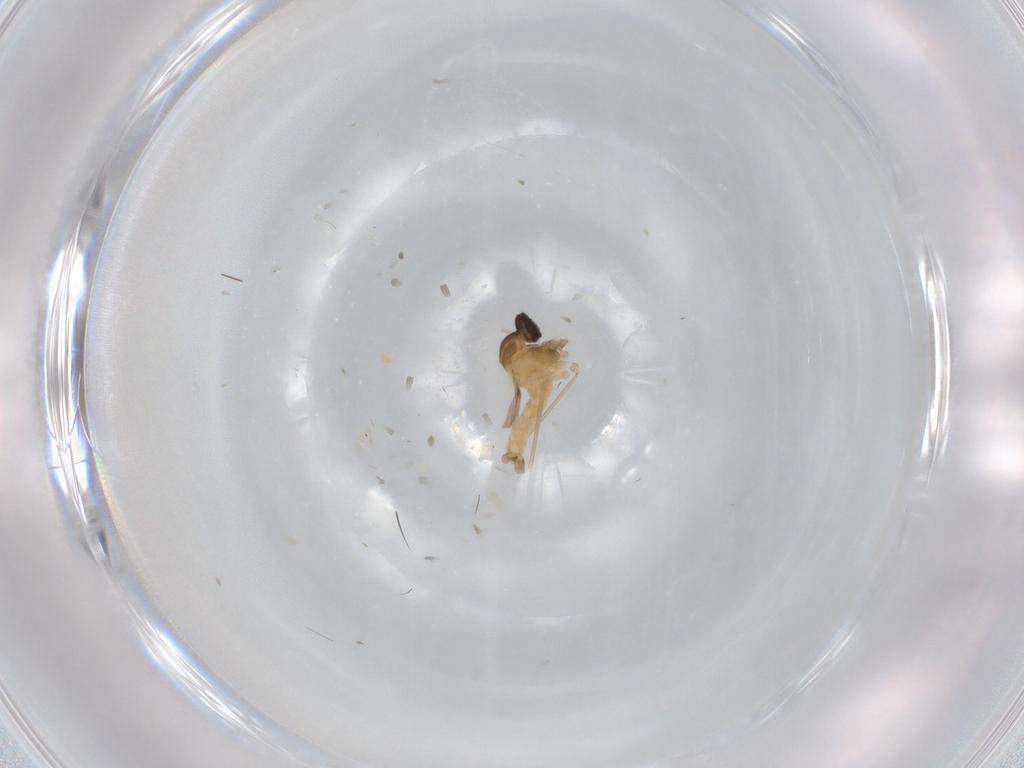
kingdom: Animalia
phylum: Arthropoda
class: Insecta
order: Diptera
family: Cecidomyiidae
